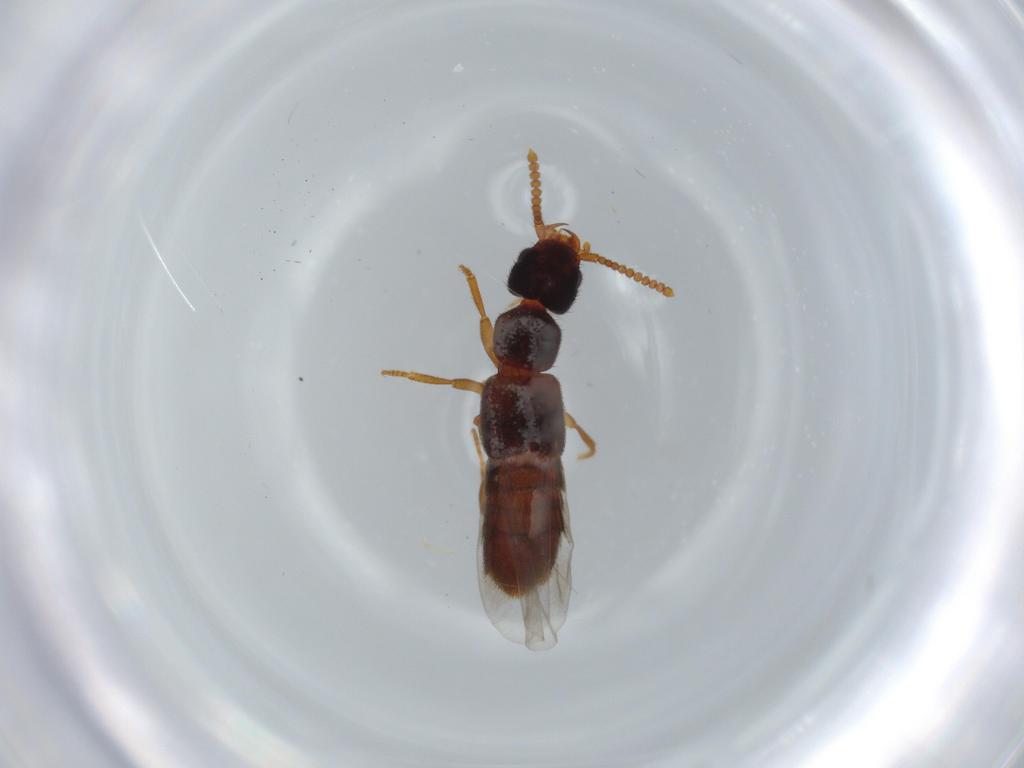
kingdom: Animalia
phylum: Arthropoda
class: Insecta
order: Coleoptera
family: Staphylinidae
